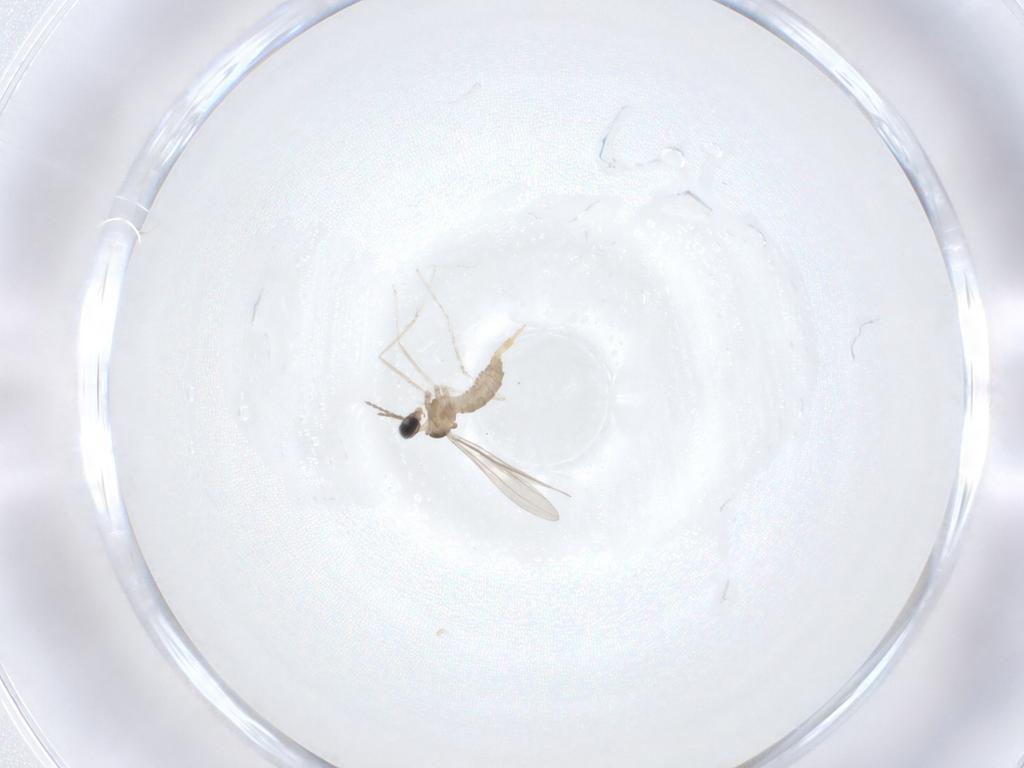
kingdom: Animalia
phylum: Arthropoda
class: Insecta
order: Diptera
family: Cecidomyiidae
